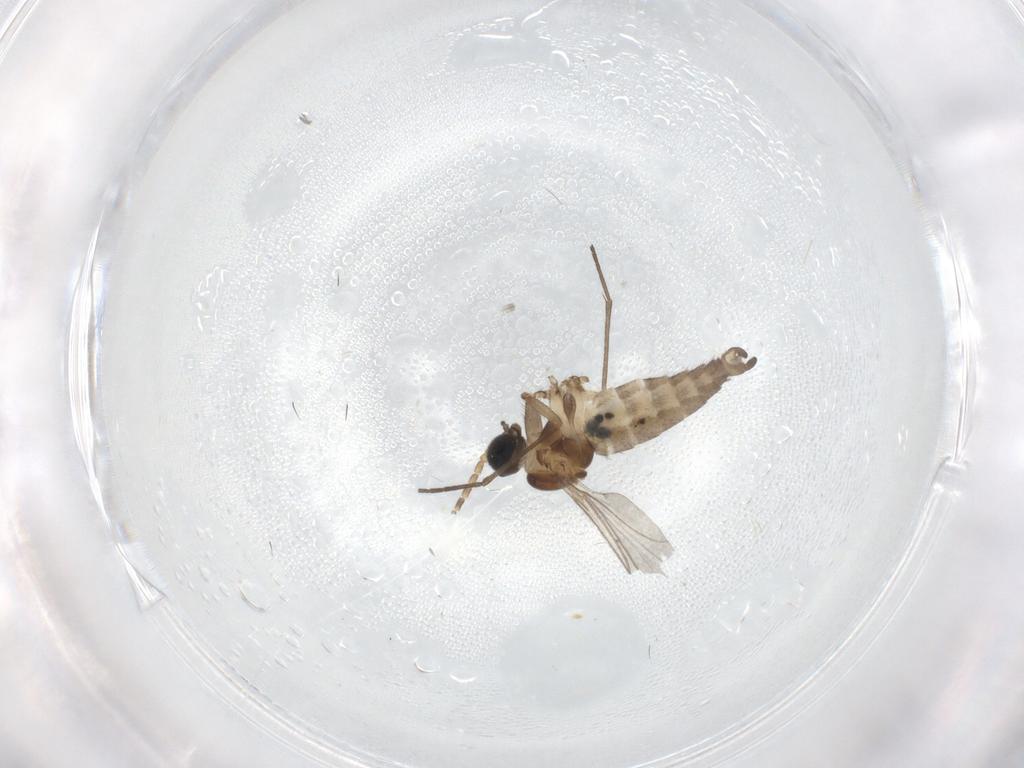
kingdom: Animalia
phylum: Arthropoda
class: Insecta
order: Diptera
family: Sciaridae
